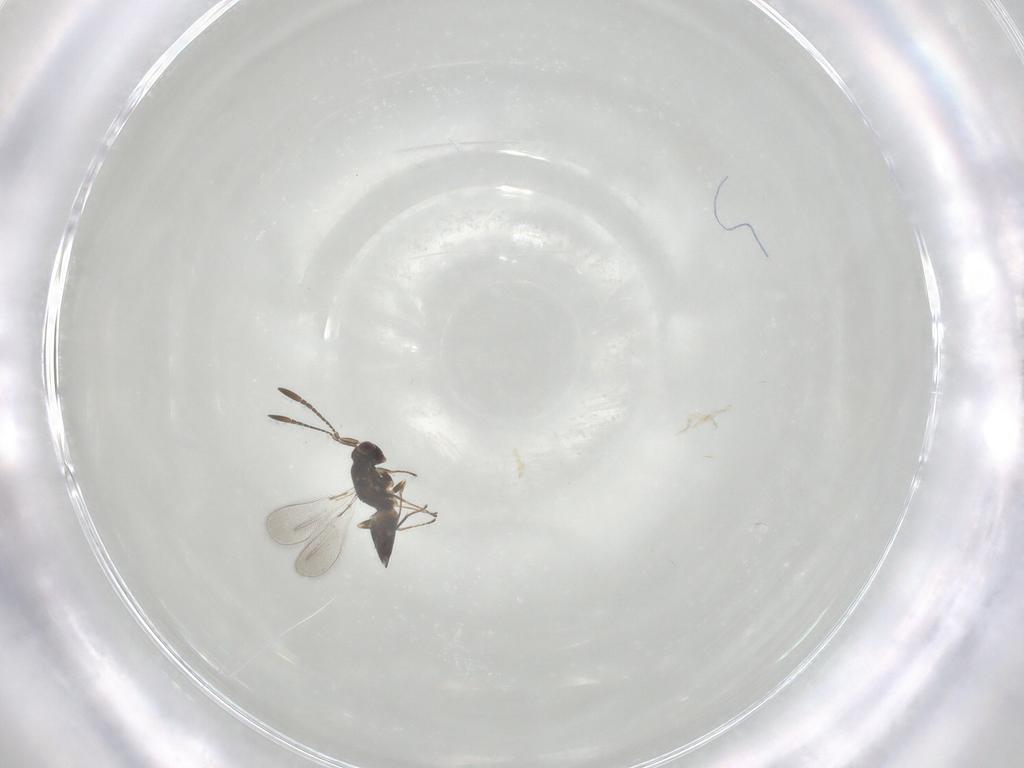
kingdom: Animalia
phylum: Arthropoda
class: Insecta
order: Hymenoptera
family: Mymaridae
